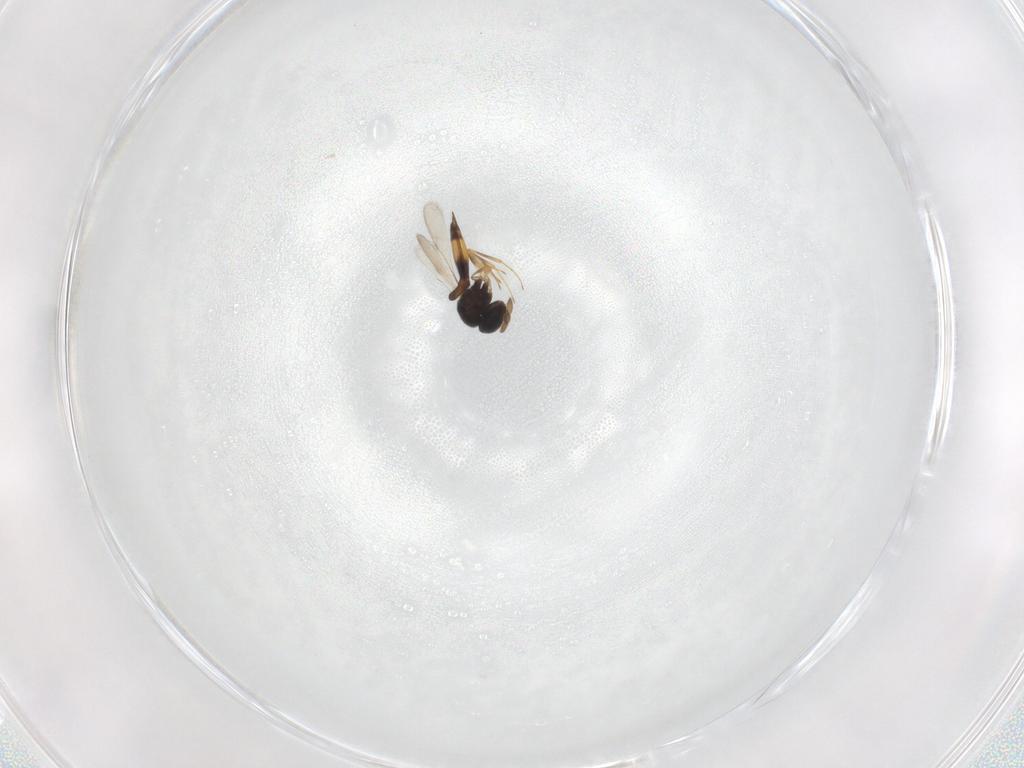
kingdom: Animalia
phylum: Arthropoda
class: Insecta
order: Hymenoptera
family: Scelionidae
